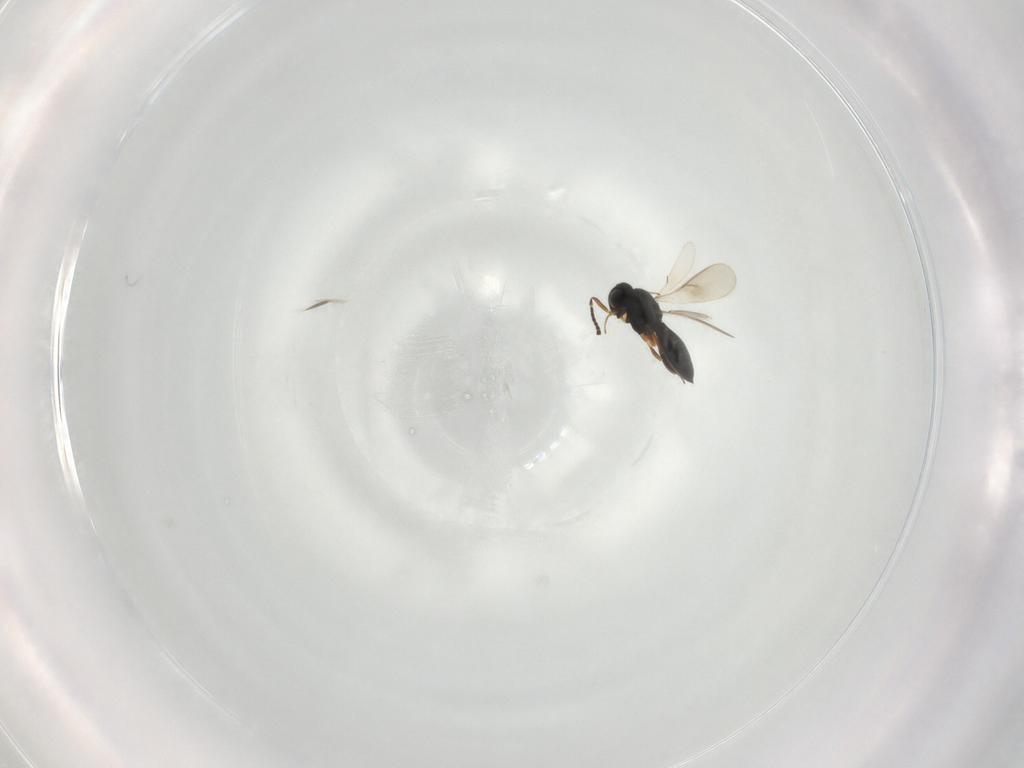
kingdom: Animalia
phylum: Arthropoda
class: Insecta
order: Hymenoptera
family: Scelionidae
